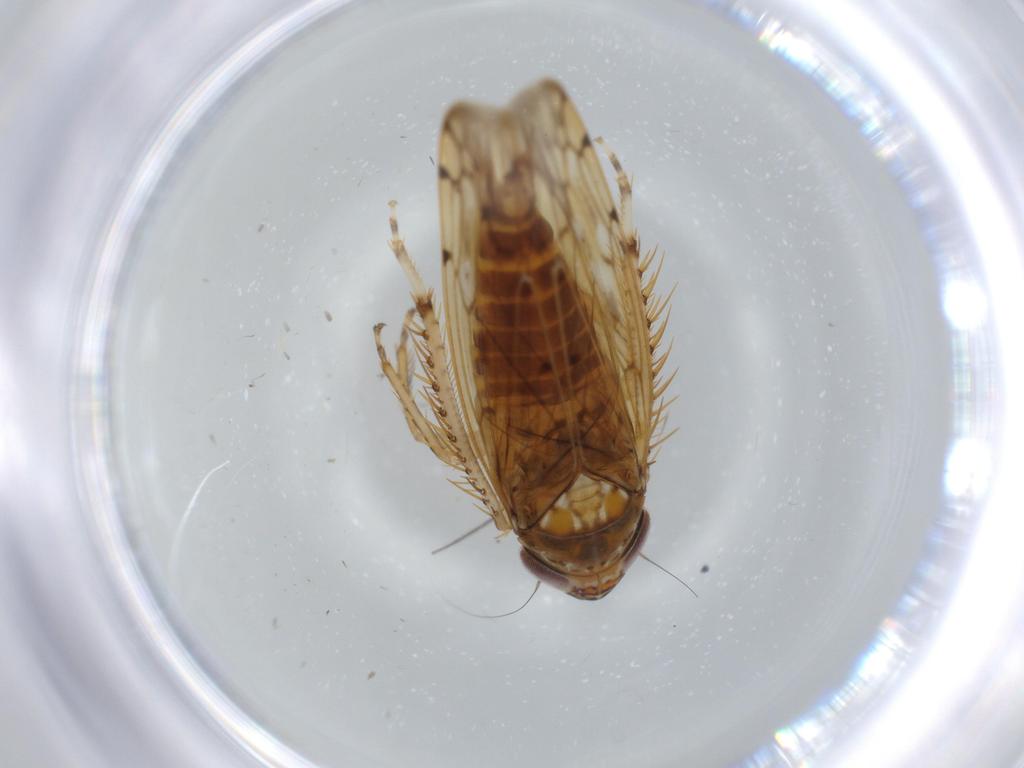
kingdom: Animalia
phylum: Arthropoda
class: Insecta
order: Hemiptera
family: Cicadellidae
